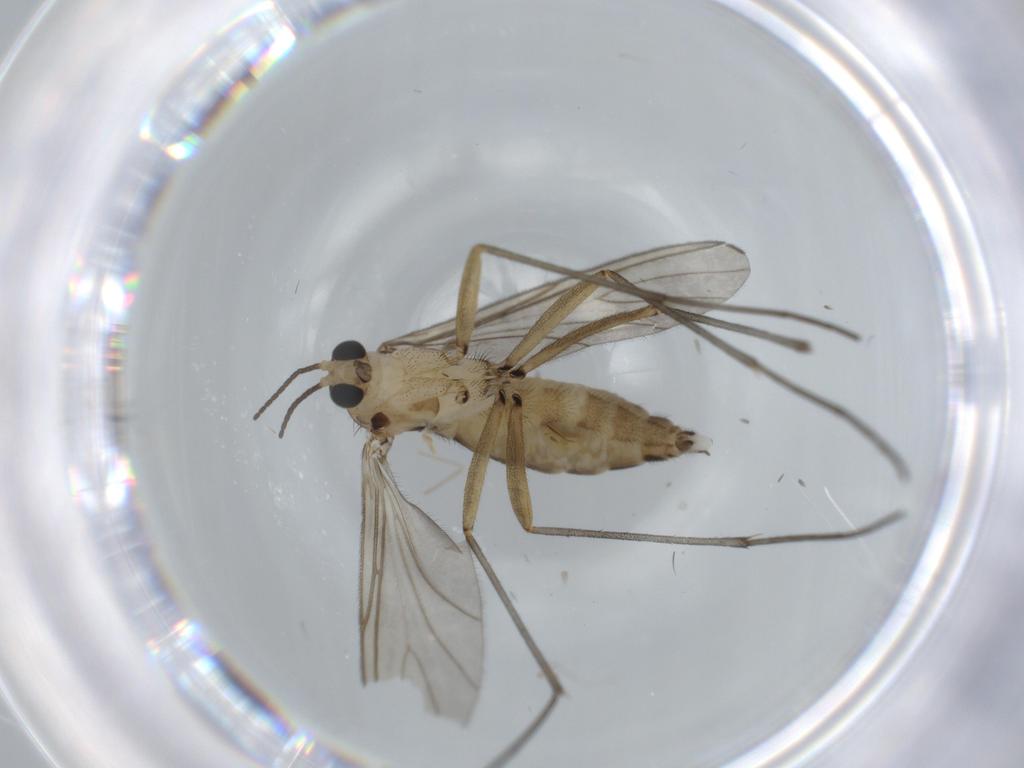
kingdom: Animalia
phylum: Arthropoda
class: Insecta
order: Diptera
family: Sciaridae
